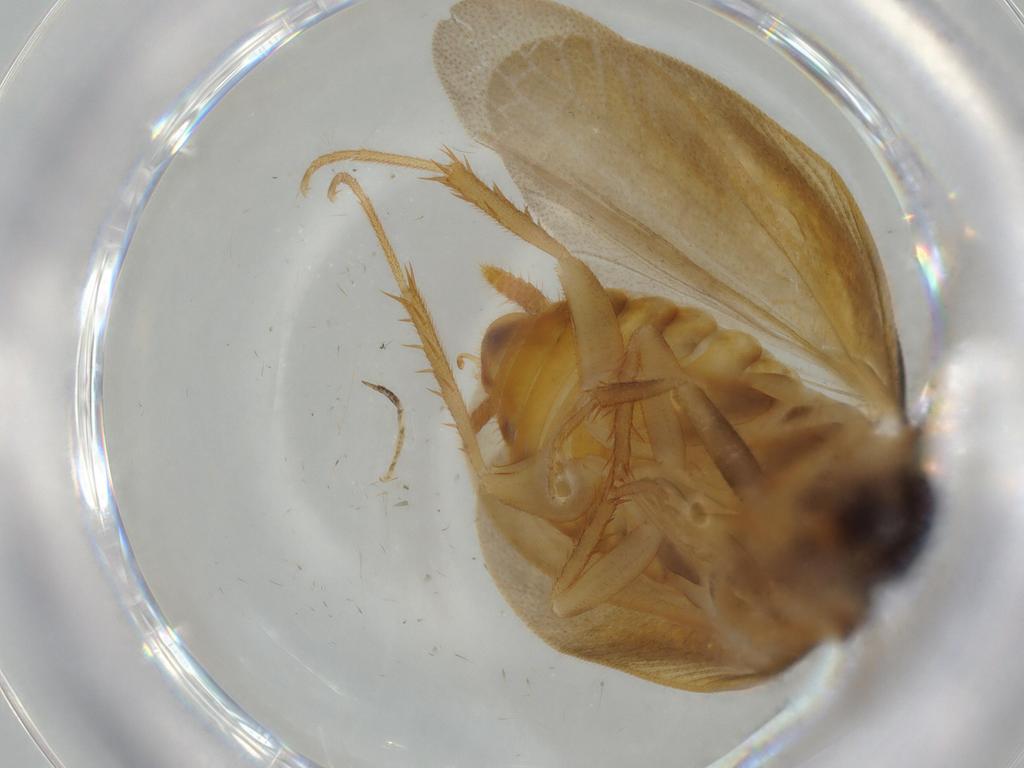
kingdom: Animalia
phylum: Arthropoda
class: Insecta
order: Blattodea
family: Ectobiidae
